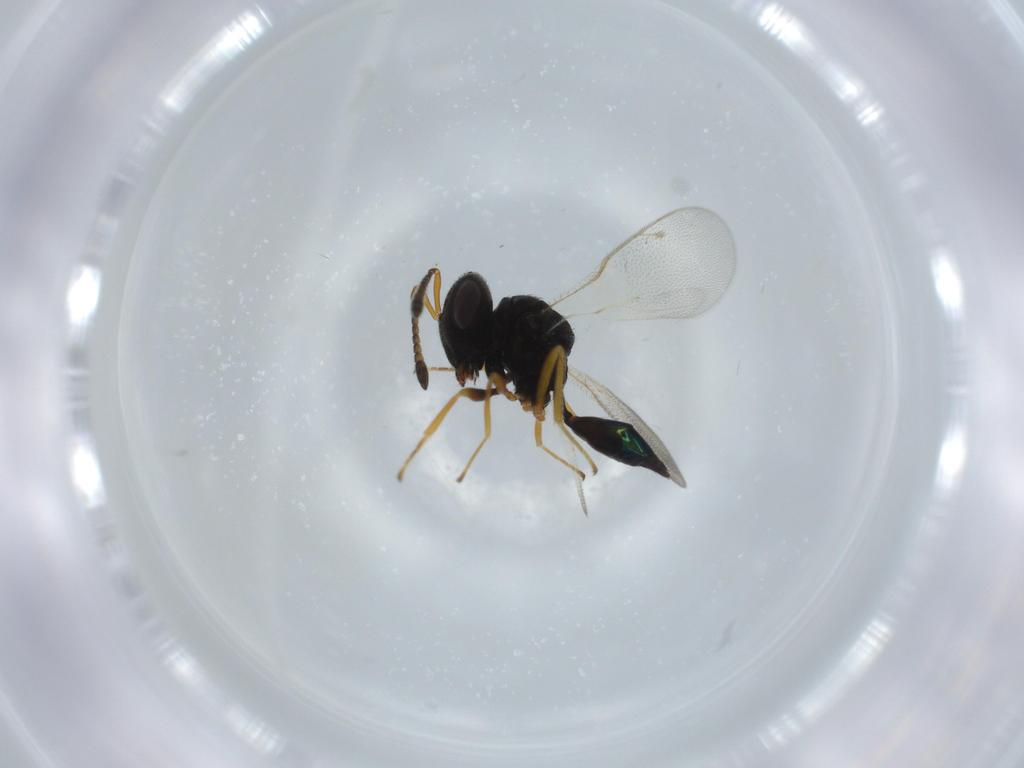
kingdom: Animalia
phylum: Arthropoda
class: Insecta
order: Hymenoptera
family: Pteromalidae
